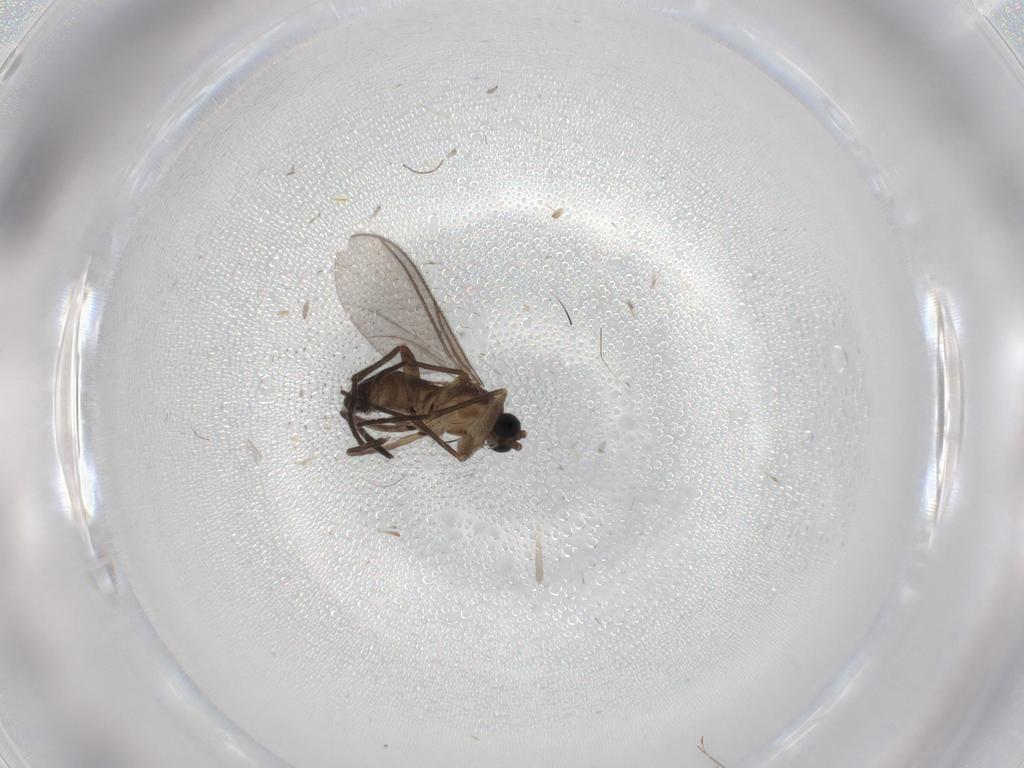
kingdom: Animalia
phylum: Arthropoda
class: Insecta
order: Diptera
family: Sciaridae
